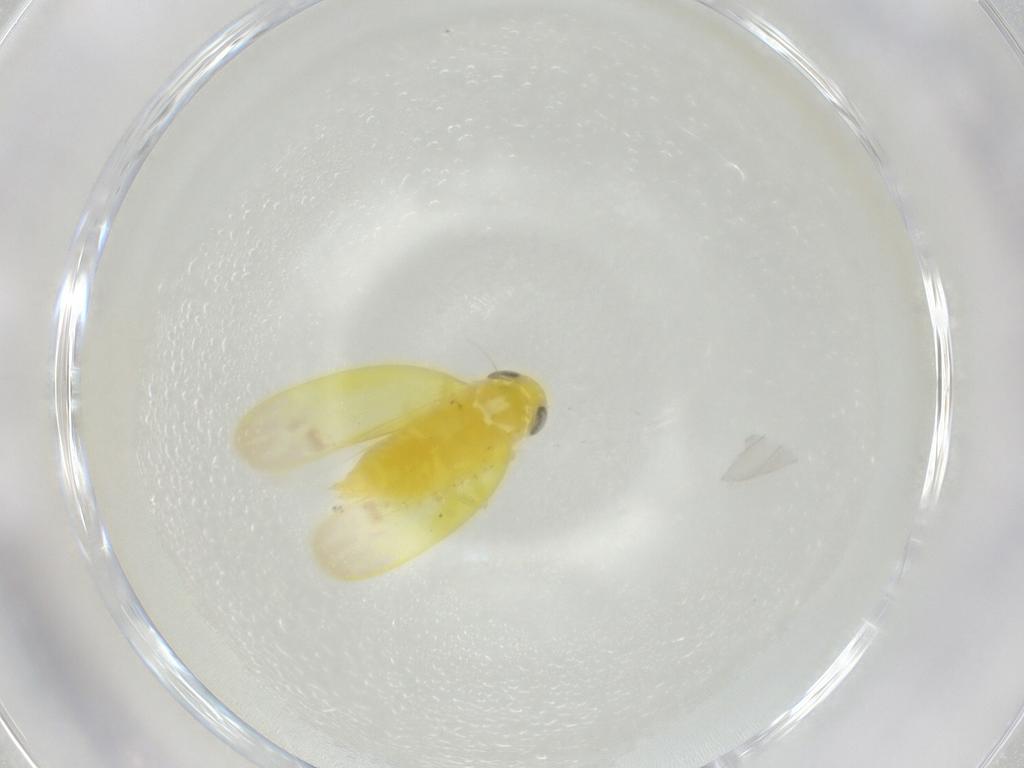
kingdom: Animalia
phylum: Arthropoda
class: Insecta
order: Hemiptera
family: Cicadellidae
